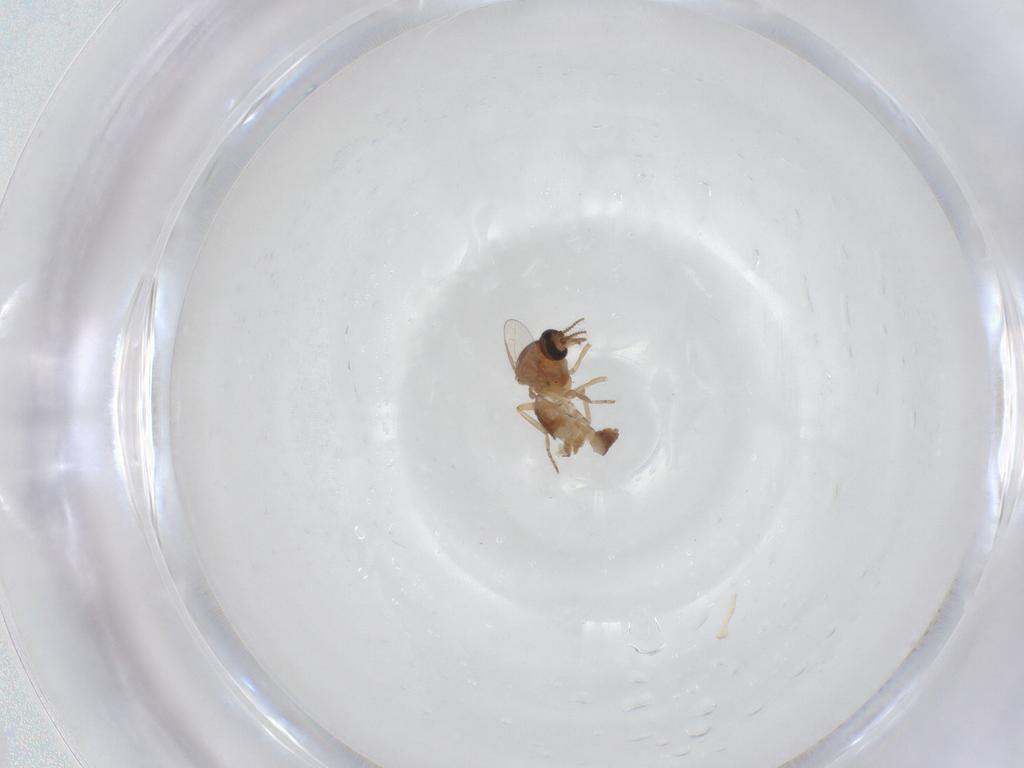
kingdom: Animalia
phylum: Arthropoda
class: Insecta
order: Diptera
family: Ceratopogonidae
